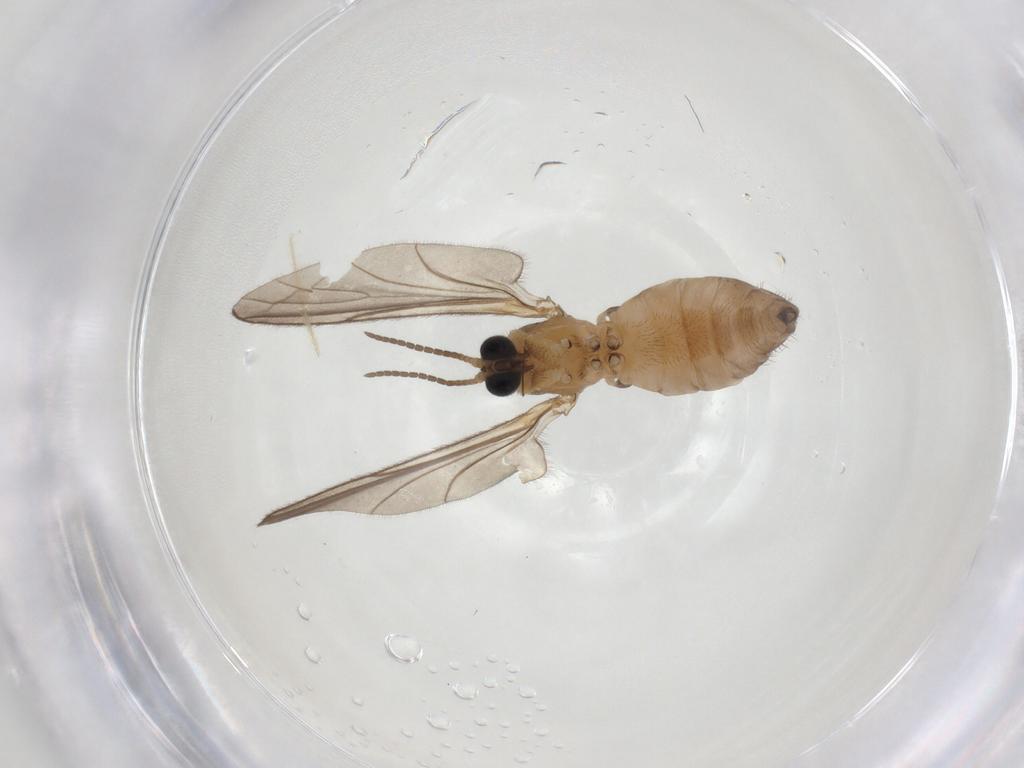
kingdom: Animalia
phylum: Arthropoda
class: Insecta
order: Diptera
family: Sciaridae
